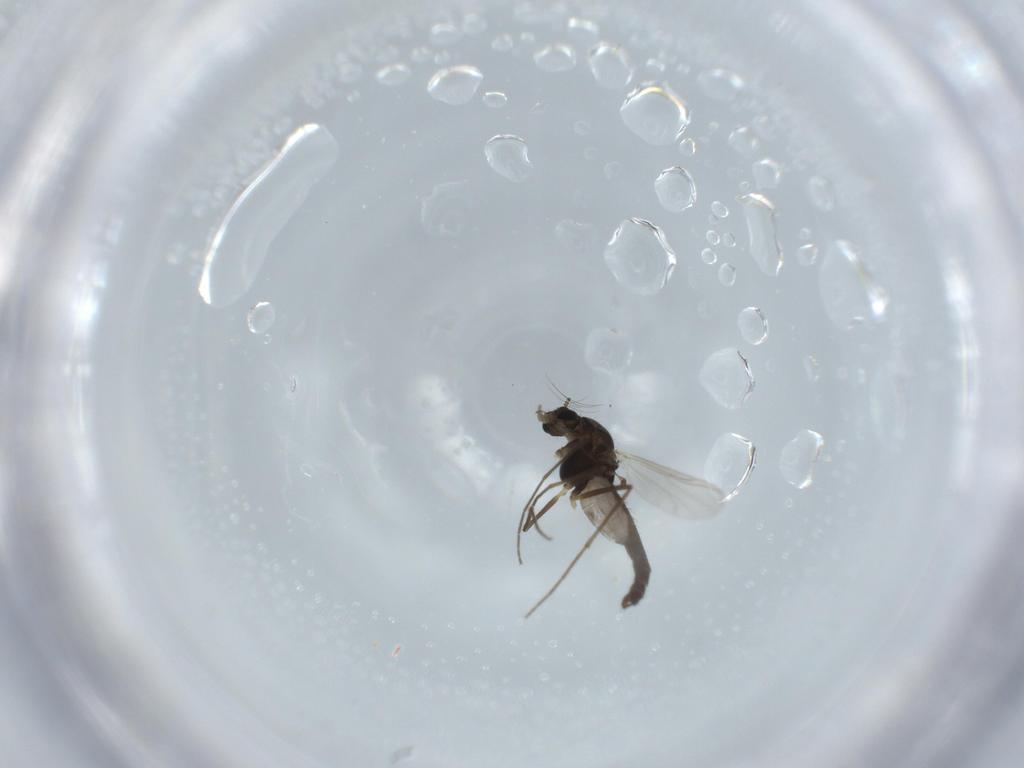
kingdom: Animalia
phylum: Arthropoda
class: Insecta
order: Diptera
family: Chironomidae
